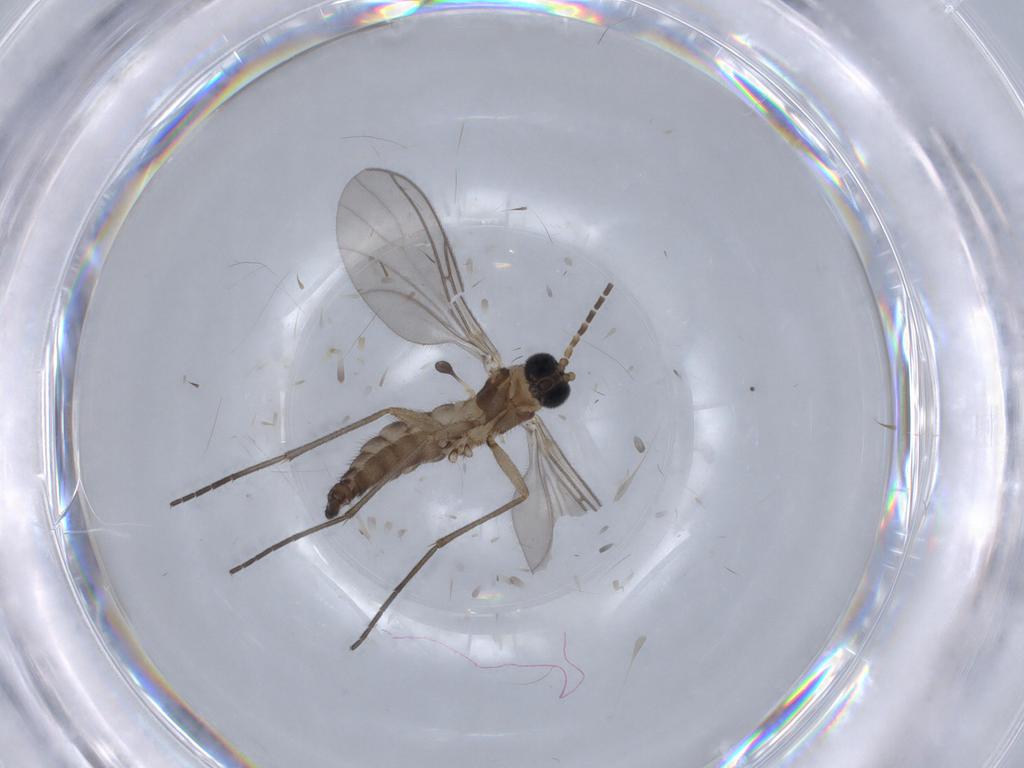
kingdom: Animalia
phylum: Arthropoda
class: Insecta
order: Diptera
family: Sciaridae
